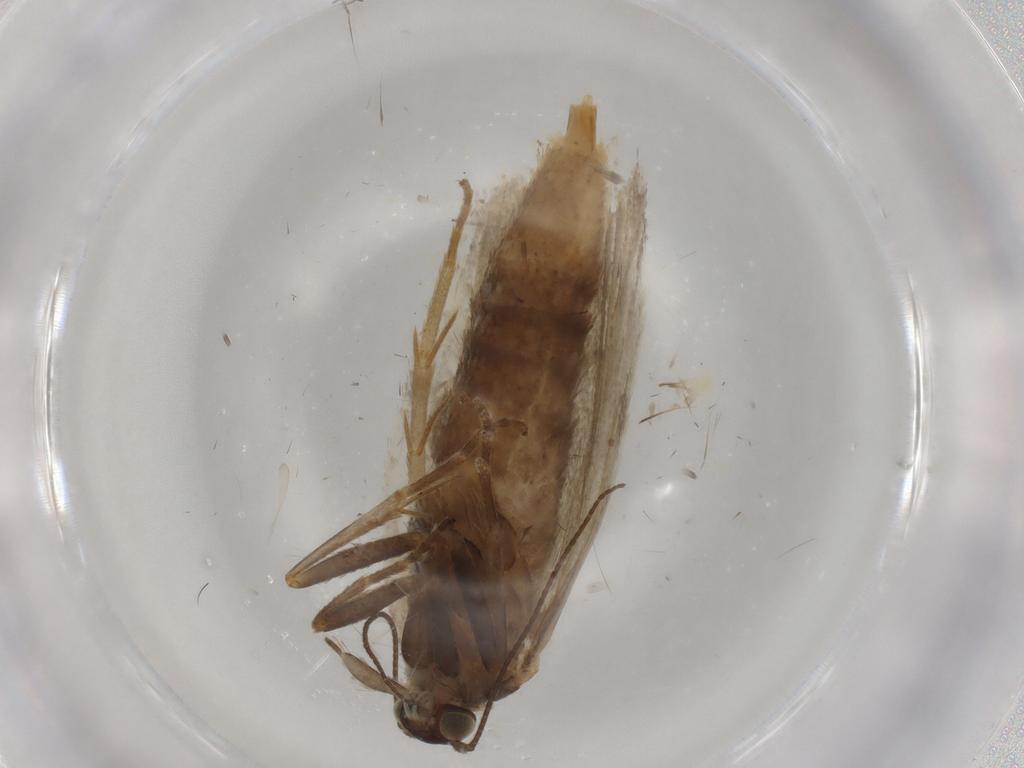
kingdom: Animalia
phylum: Arthropoda
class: Insecta
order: Lepidoptera
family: Tortricidae
